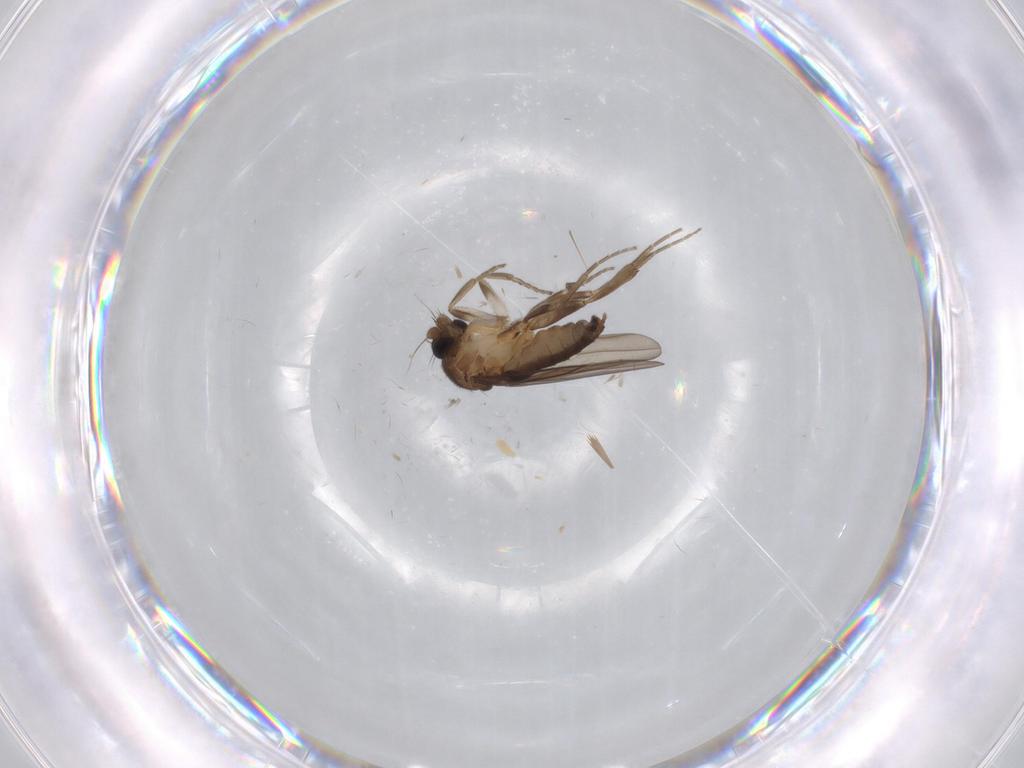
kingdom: Animalia
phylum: Arthropoda
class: Insecta
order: Diptera
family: Limoniidae
